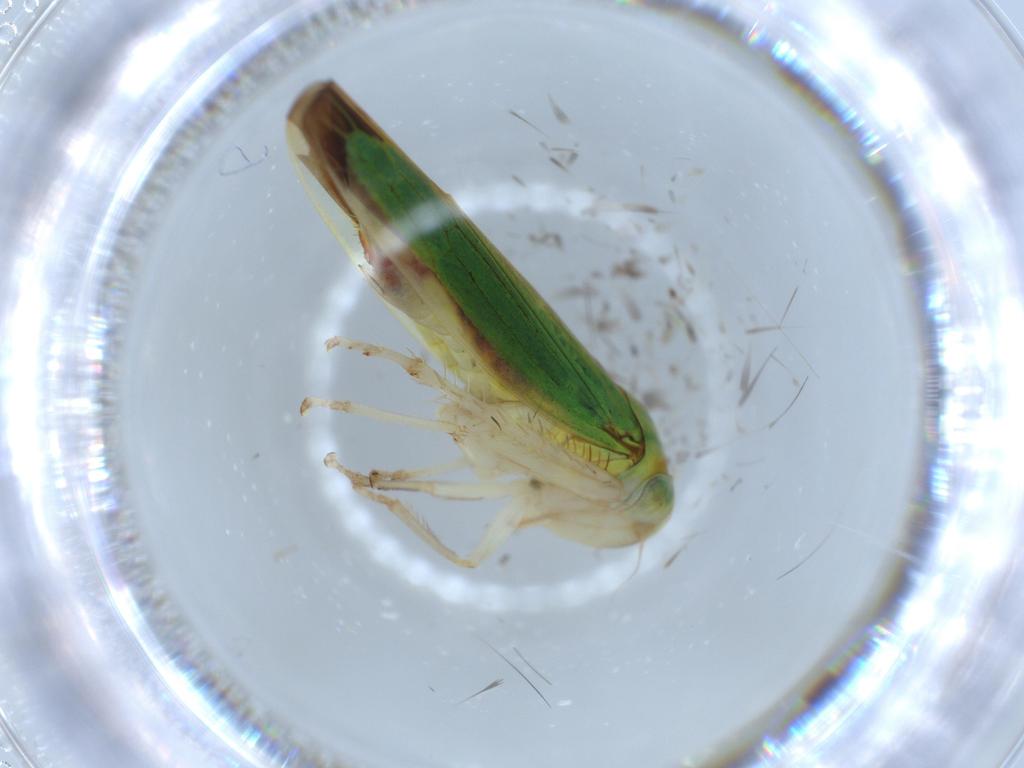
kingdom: Animalia
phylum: Arthropoda
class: Insecta
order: Hemiptera
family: Cicadellidae
